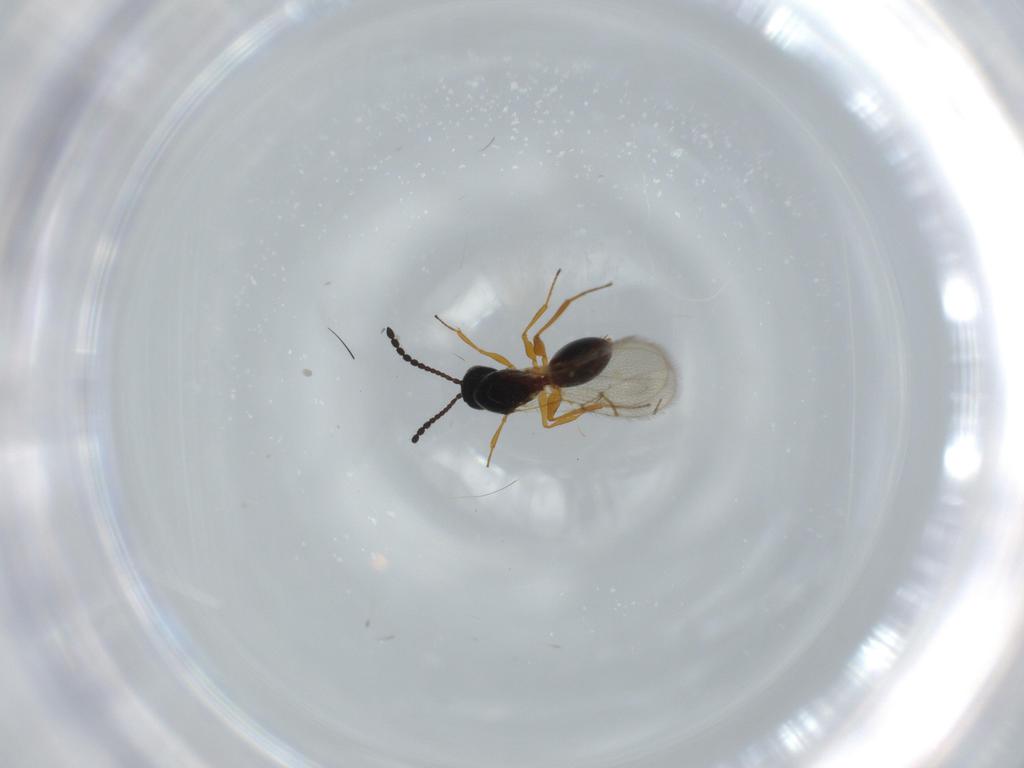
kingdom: Animalia
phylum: Arthropoda
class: Insecta
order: Hymenoptera
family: Figitidae
